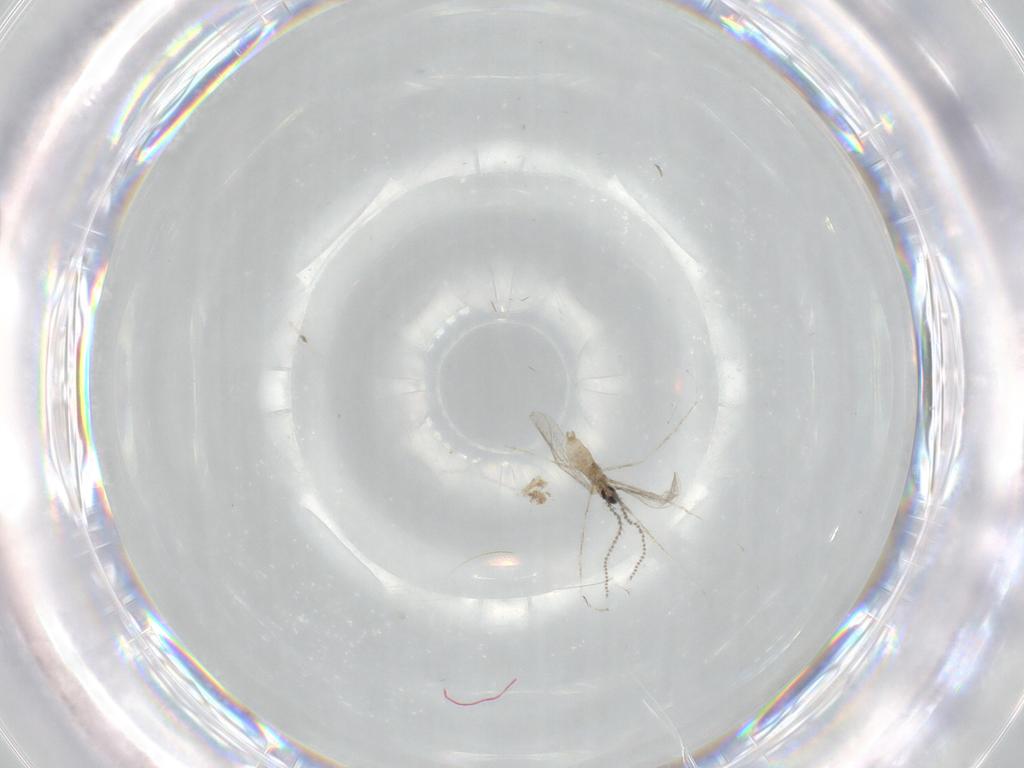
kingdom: Animalia
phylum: Arthropoda
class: Insecta
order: Diptera
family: Chironomidae
